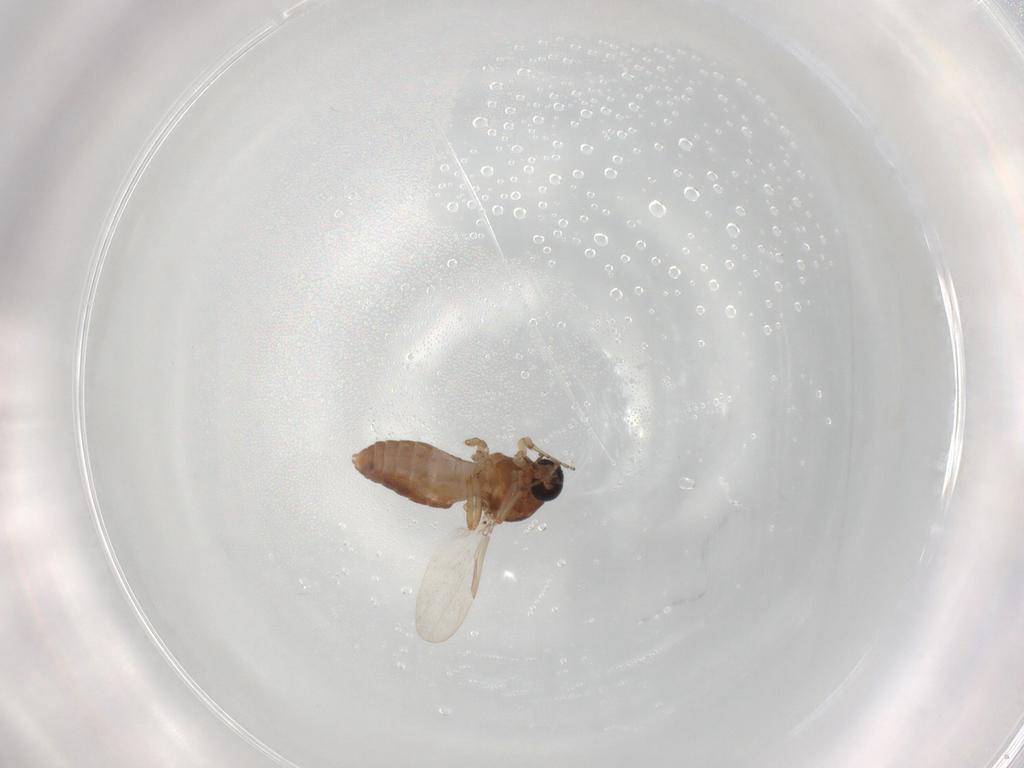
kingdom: Animalia
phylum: Arthropoda
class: Insecta
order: Diptera
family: Ceratopogonidae
